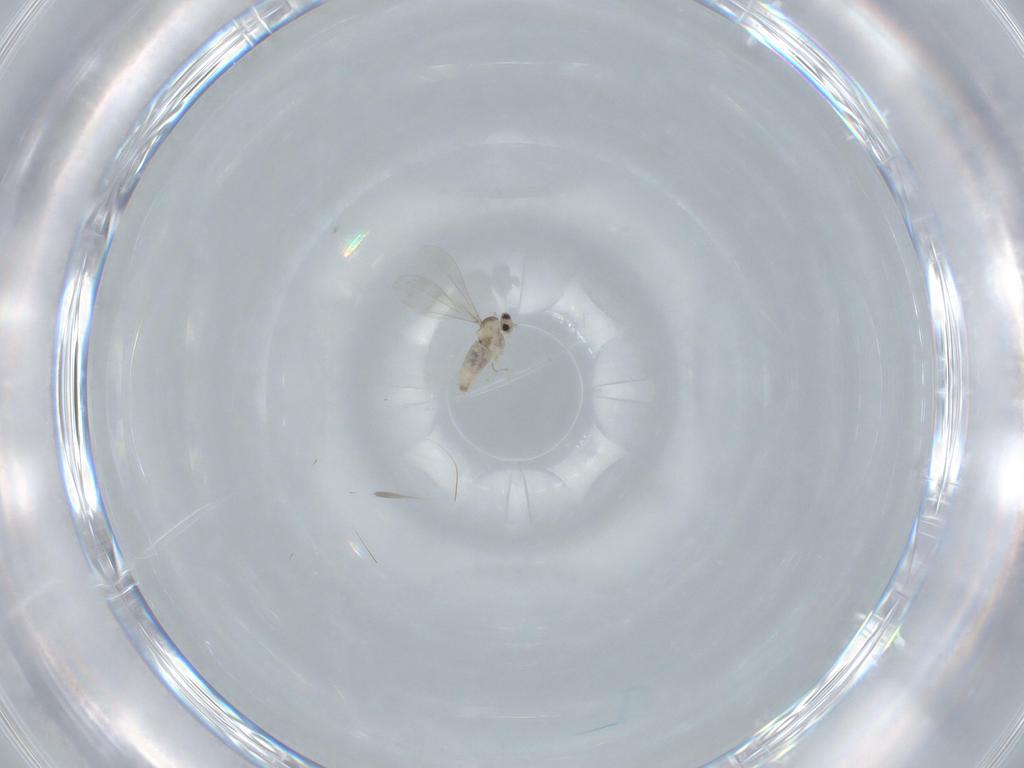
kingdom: Animalia
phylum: Arthropoda
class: Insecta
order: Diptera
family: Cecidomyiidae
